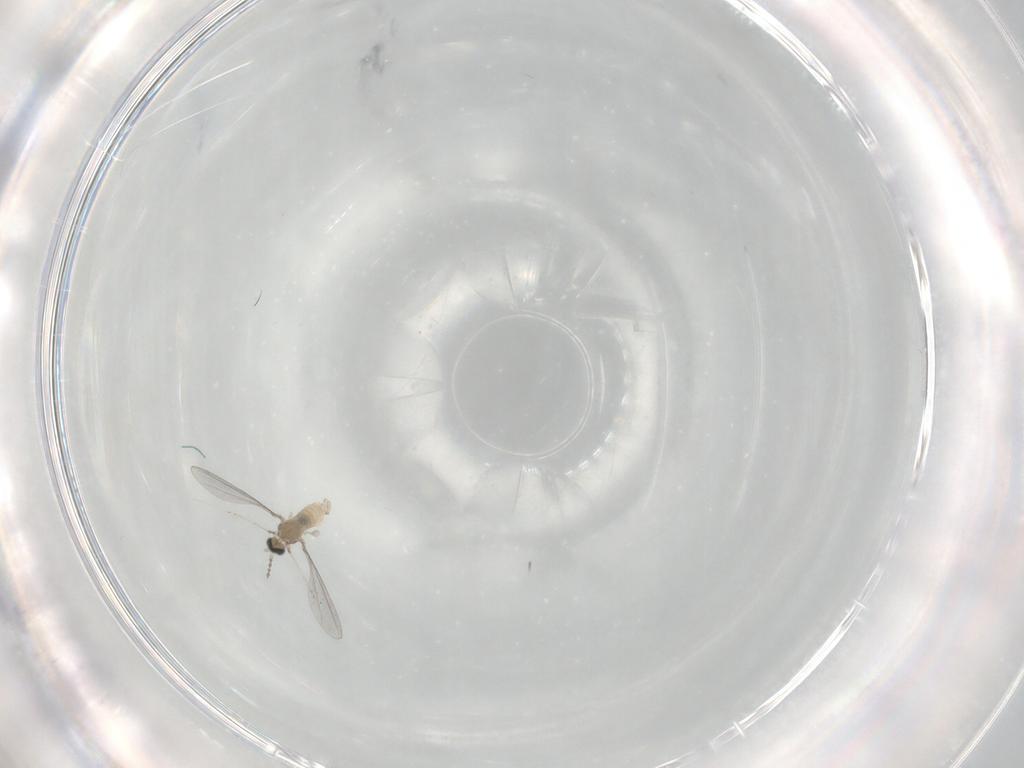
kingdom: Animalia
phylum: Arthropoda
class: Insecta
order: Diptera
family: Cecidomyiidae
